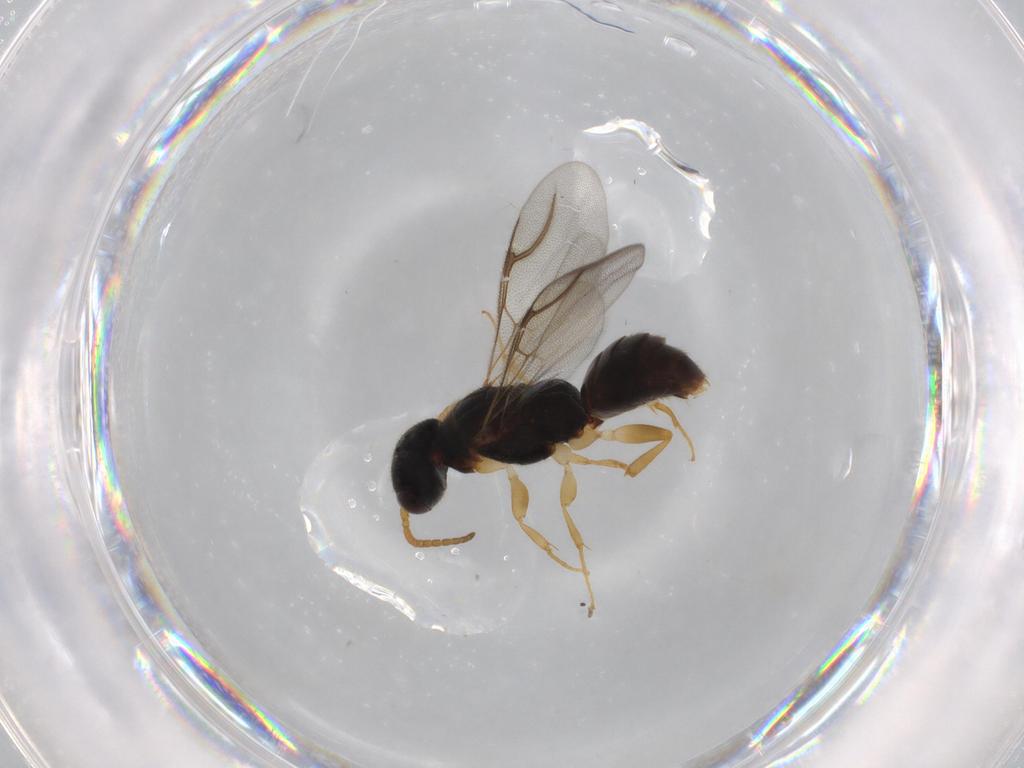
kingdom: Animalia
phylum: Arthropoda
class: Insecta
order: Hymenoptera
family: Bethylidae
